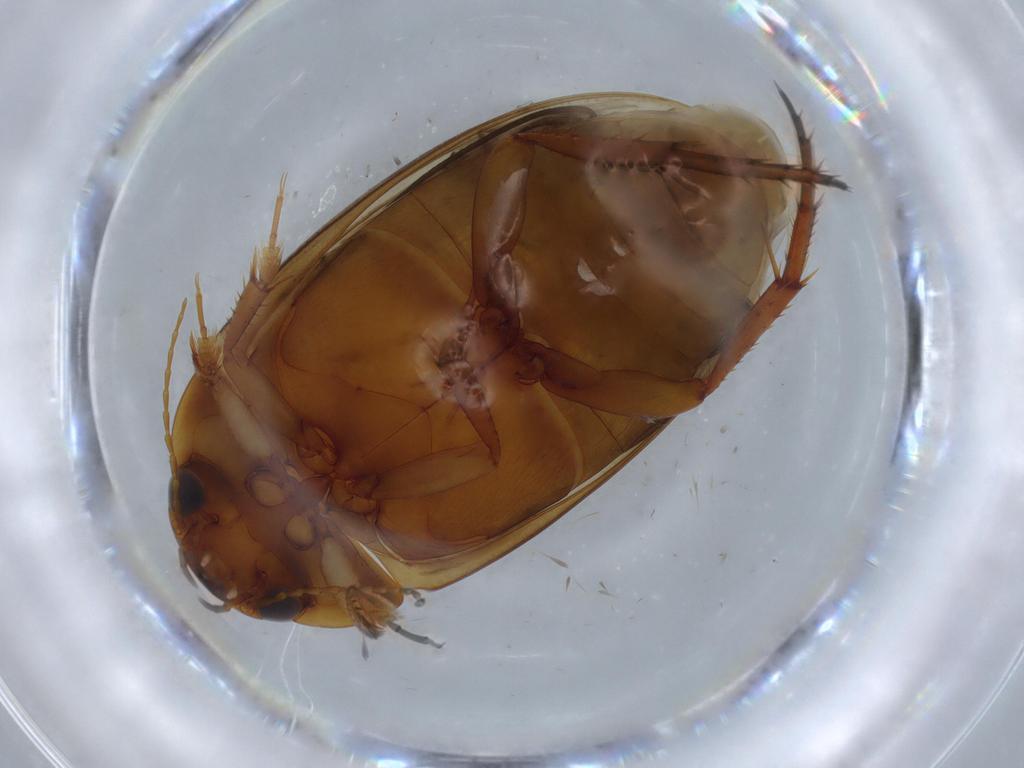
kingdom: Animalia
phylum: Arthropoda
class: Insecta
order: Coleoptera
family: Dytiscidae
